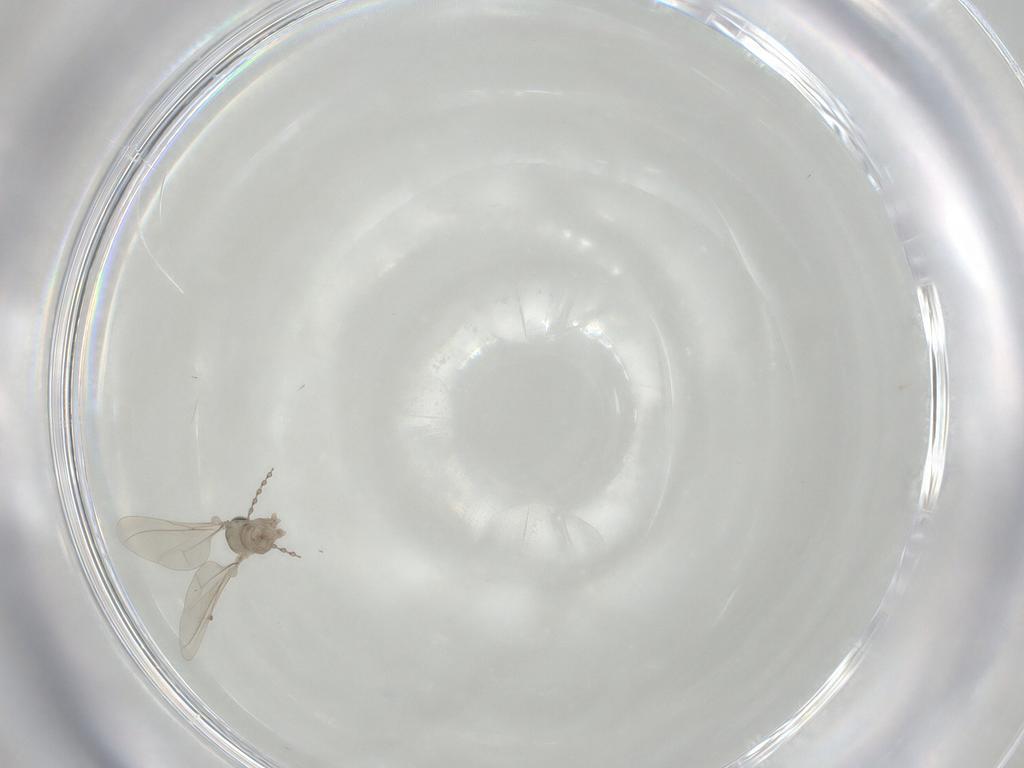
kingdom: Animalia
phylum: Arthropoda
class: Insecta
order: Diptera
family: Cecidomyiidae
